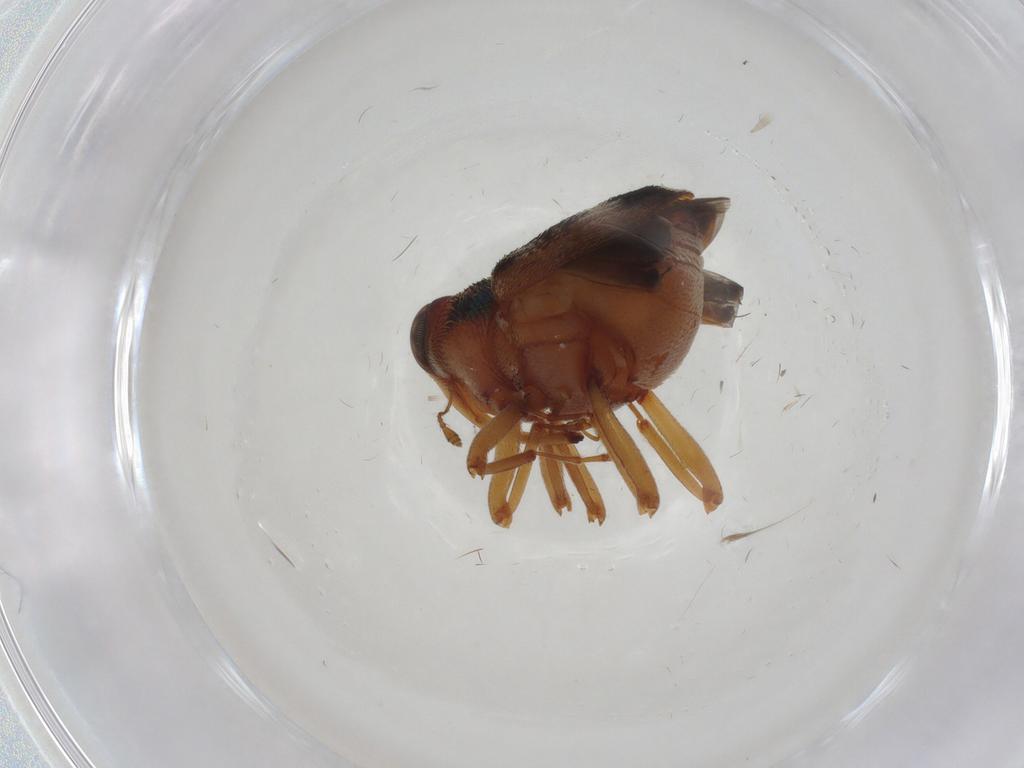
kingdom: Animalia
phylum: Arthropoda
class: Insecta
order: Coleoptera
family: Curculionidae
